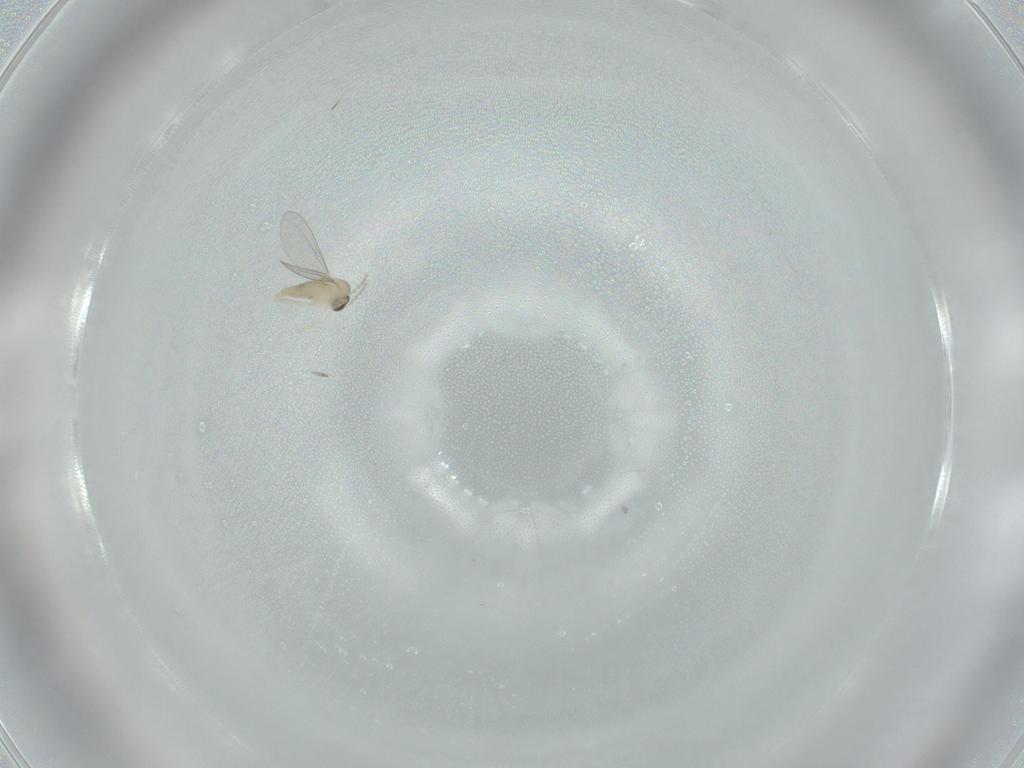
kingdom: Animalia
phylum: Arthropoda
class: Insecta
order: Diptera
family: Cecidomyiidae
